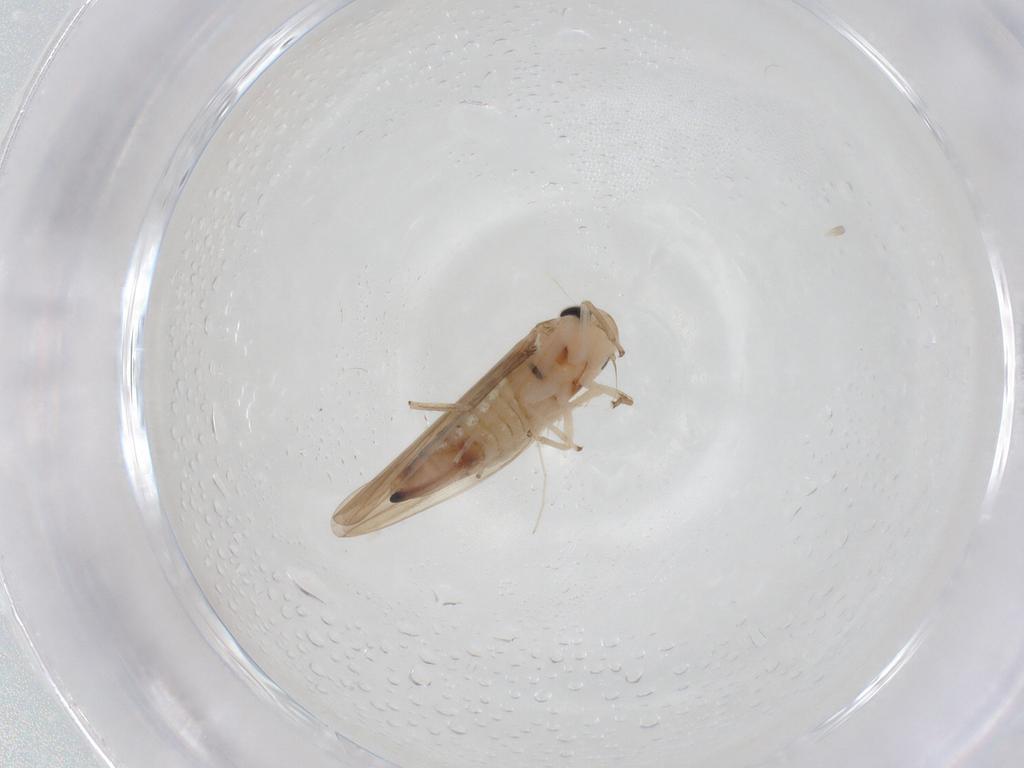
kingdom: Animalia
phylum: Arthropoda
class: Insecta
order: Hemiptera
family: Cicadellidae
